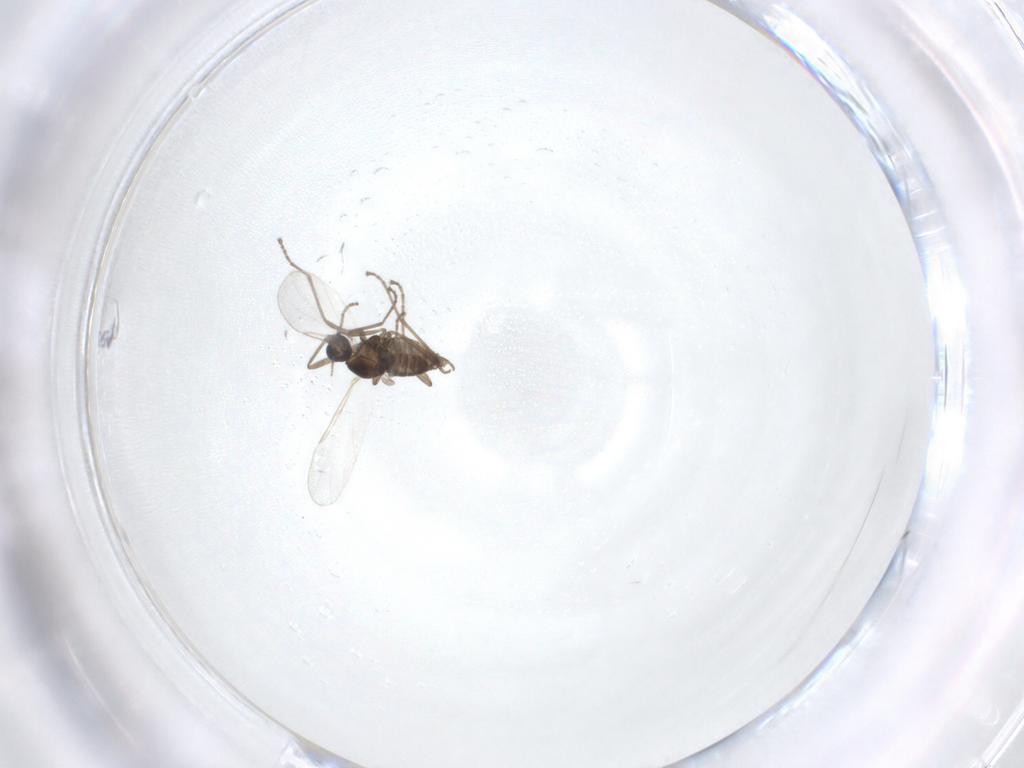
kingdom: Animalia
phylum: Arthropoda
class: Insecta
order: Diptera
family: Cecidomyiidae
